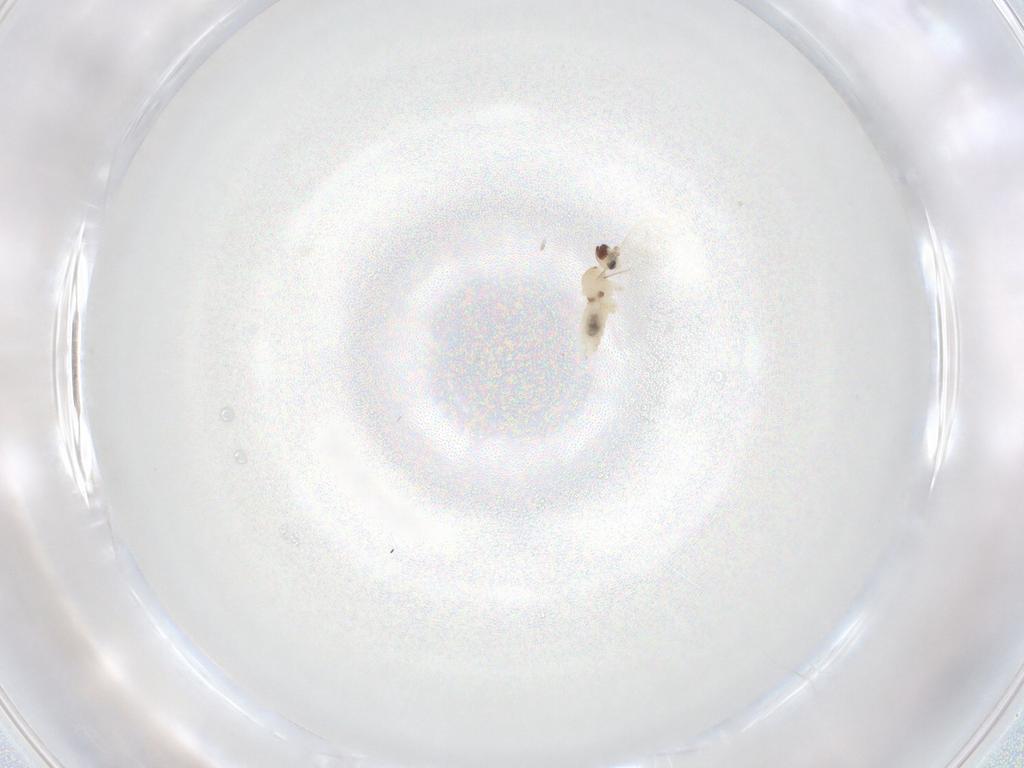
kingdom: Animalia
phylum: Arthropoda
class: Insecta
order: Diptera
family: Cecidomyiidae
